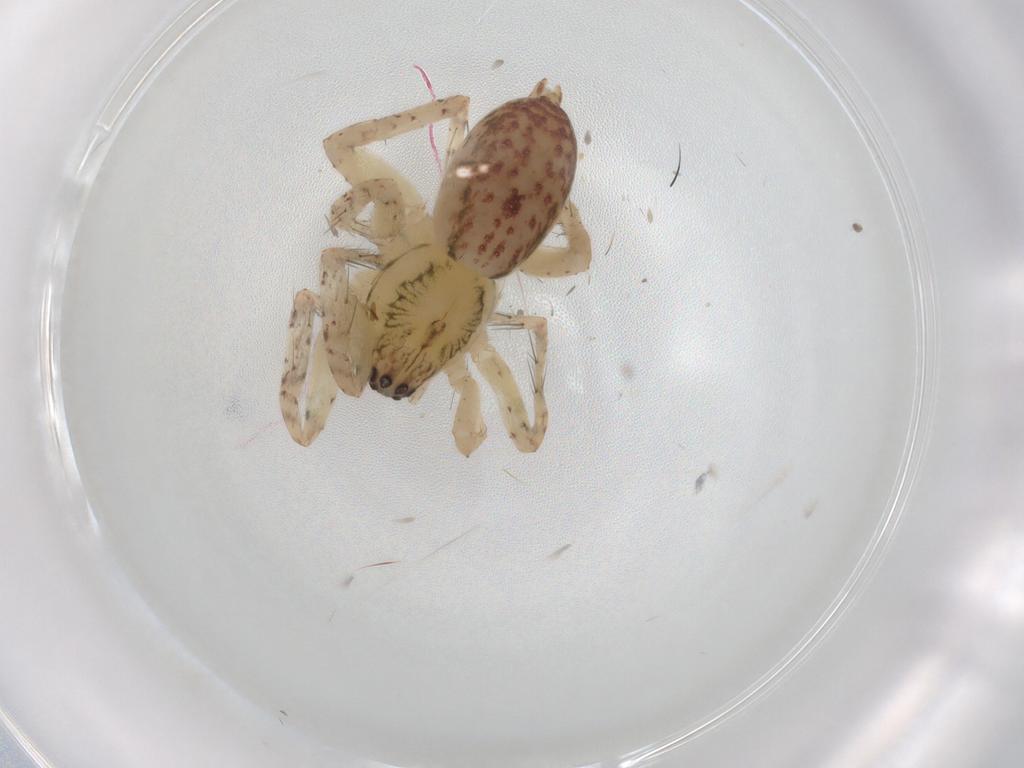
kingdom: Animalia
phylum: Arthropoda
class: Arachnida
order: Araneae
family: Anyphaenidae
